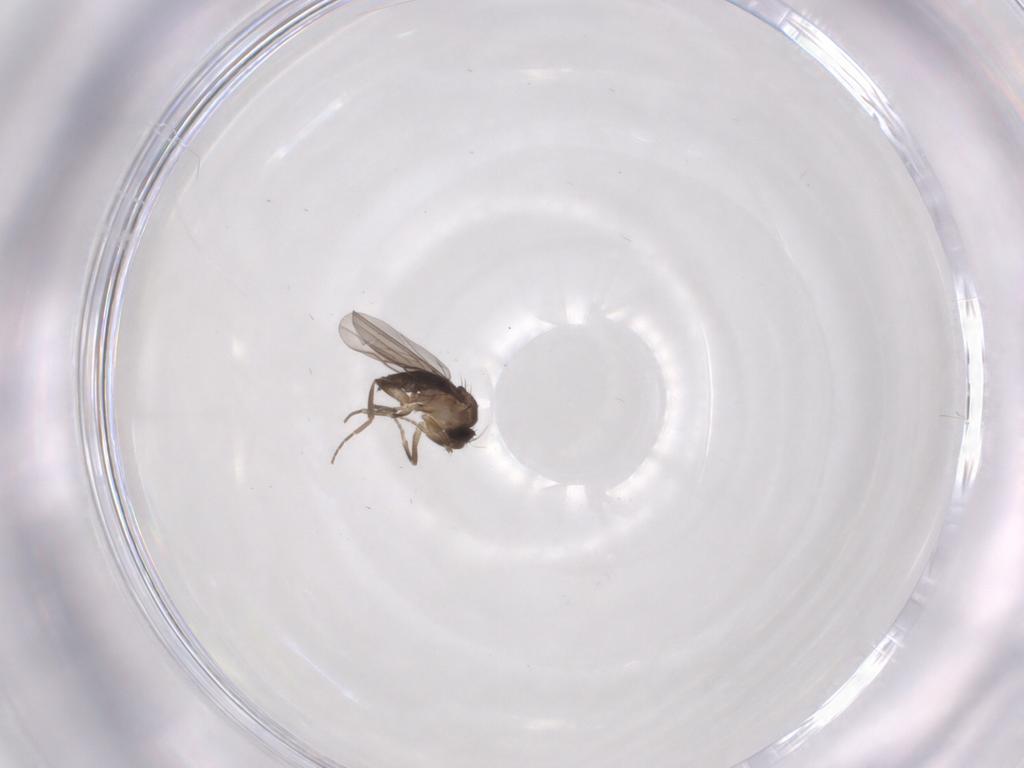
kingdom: Animalia
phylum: Arthropoda
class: Insecta
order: Diptera
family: Phoridae
